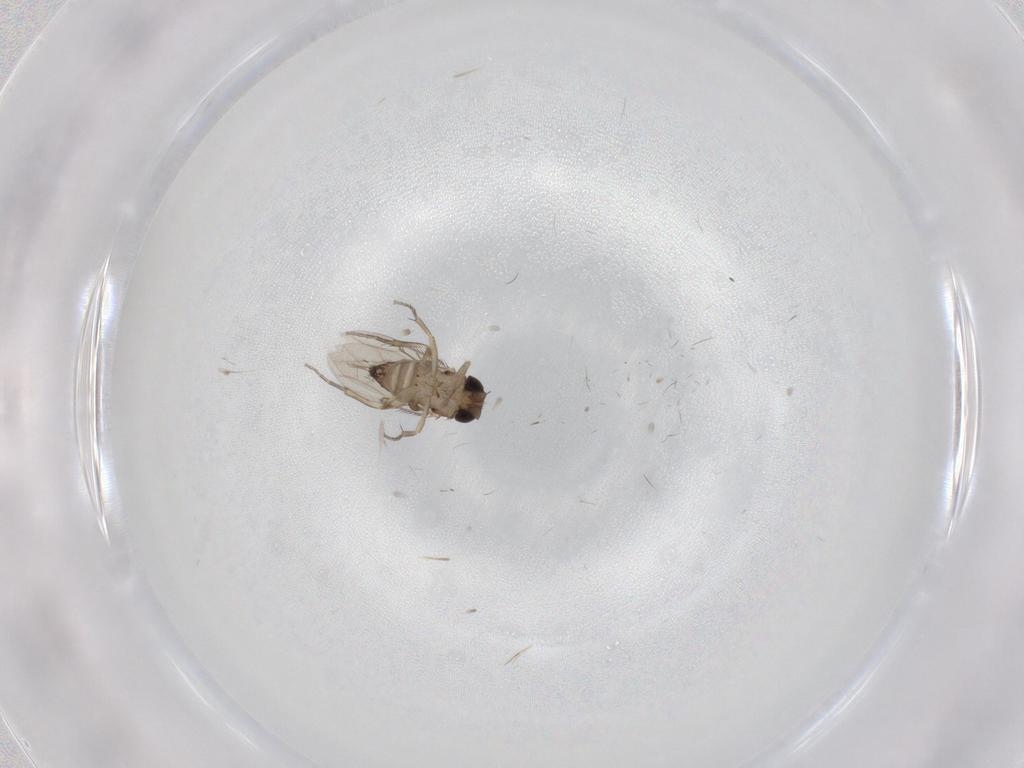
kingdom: Animalia
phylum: Arthropoda
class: Insecta
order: Diptera
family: Phoridae
